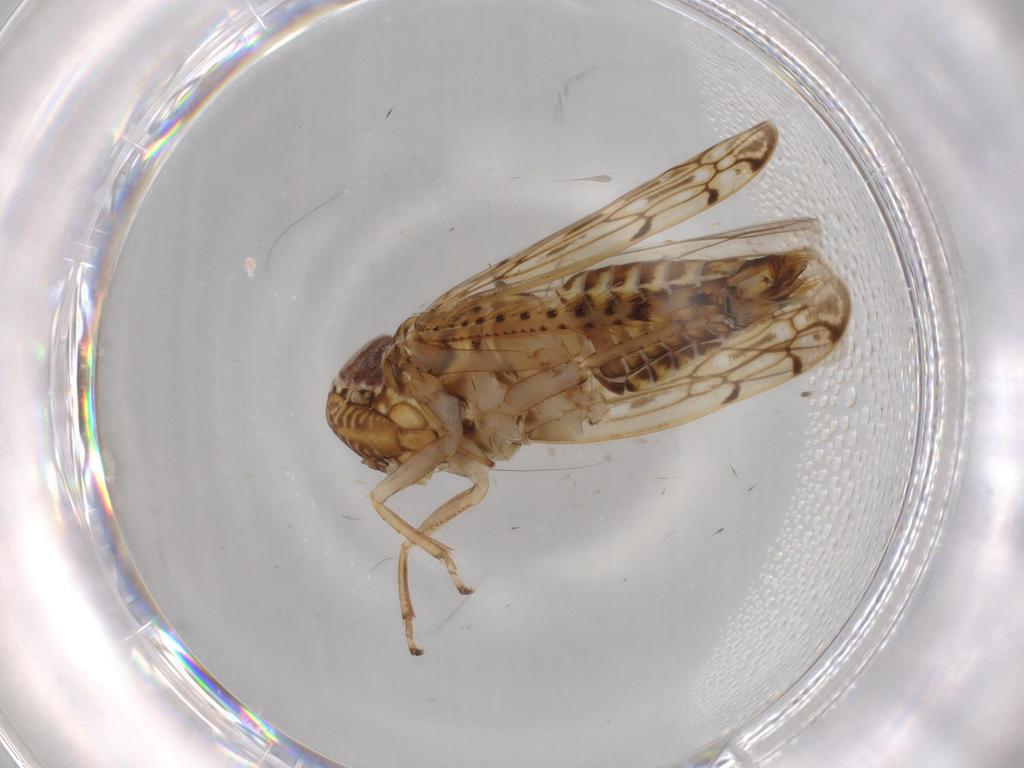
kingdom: Animalia
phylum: Arthropoda
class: Insecta
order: Hemiptera
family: Cicadellidae
